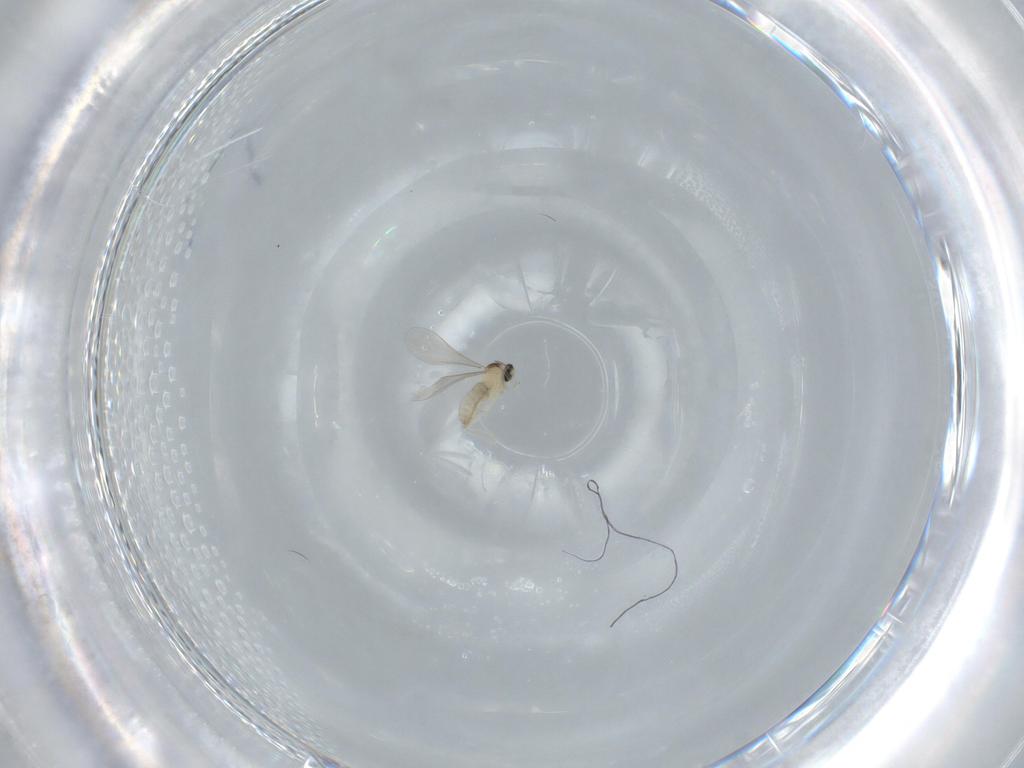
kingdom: Animalia
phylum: Arthropoda
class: Insecta
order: Diptera
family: Cecidomyiidae
